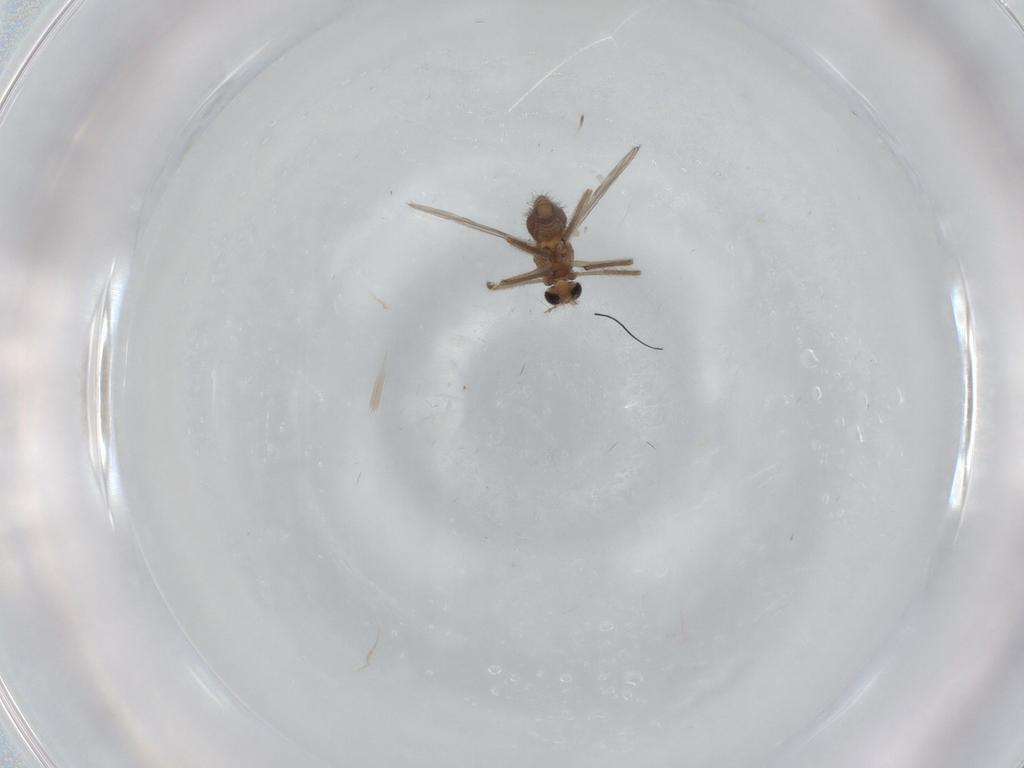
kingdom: Animalia
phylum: Arthropoda
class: Insecta
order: Diptera
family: Chironomidae
